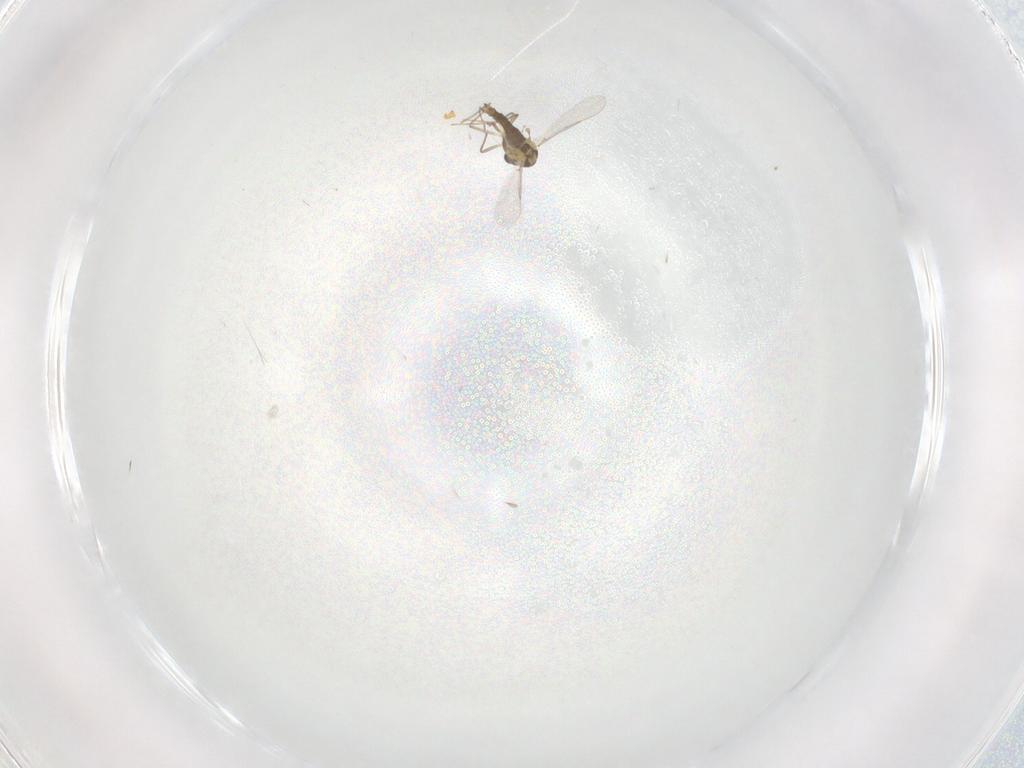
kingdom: Animalia
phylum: Arthropoda
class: Insecta
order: Diptera
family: Chironomidae
